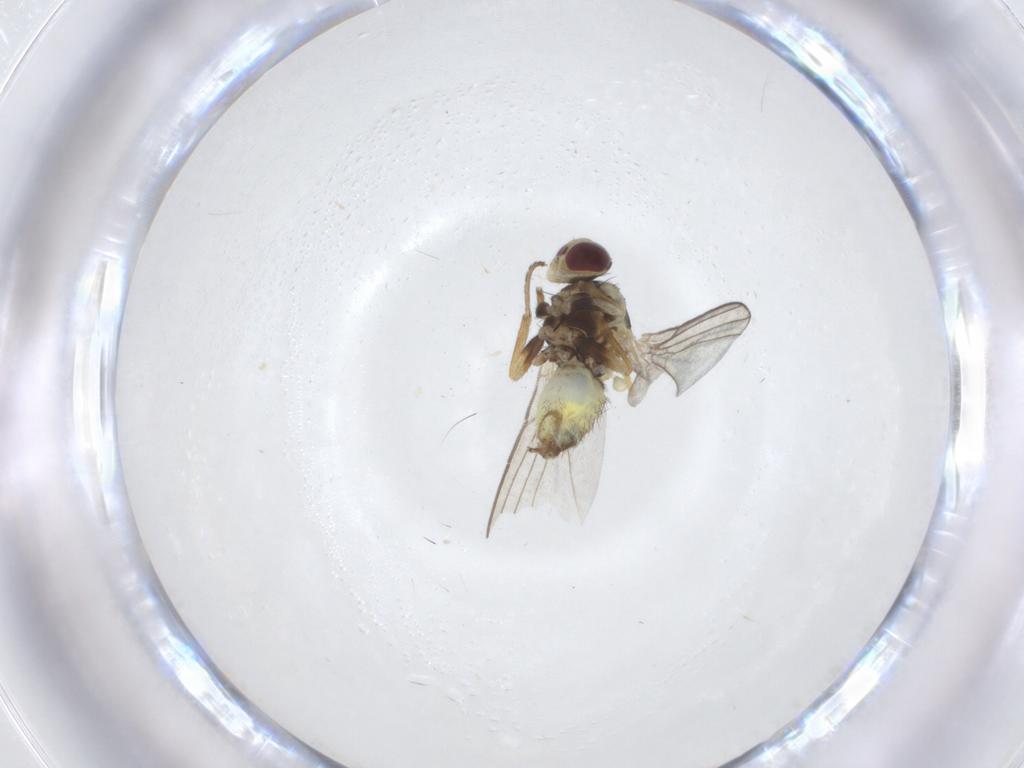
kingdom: Animalia
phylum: Arthropoda
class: Insecta
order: Diptera
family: Agromyzidae
